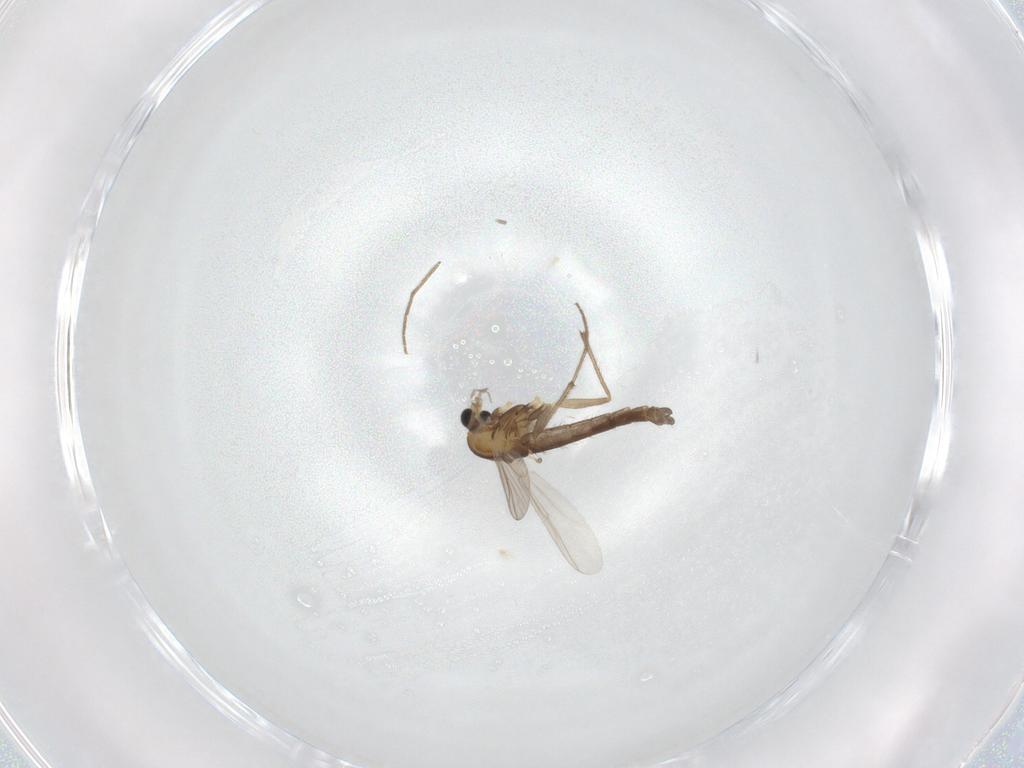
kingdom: Animalia
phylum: Arthropoda
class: Insecta
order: Diptera
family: Chironomidae
